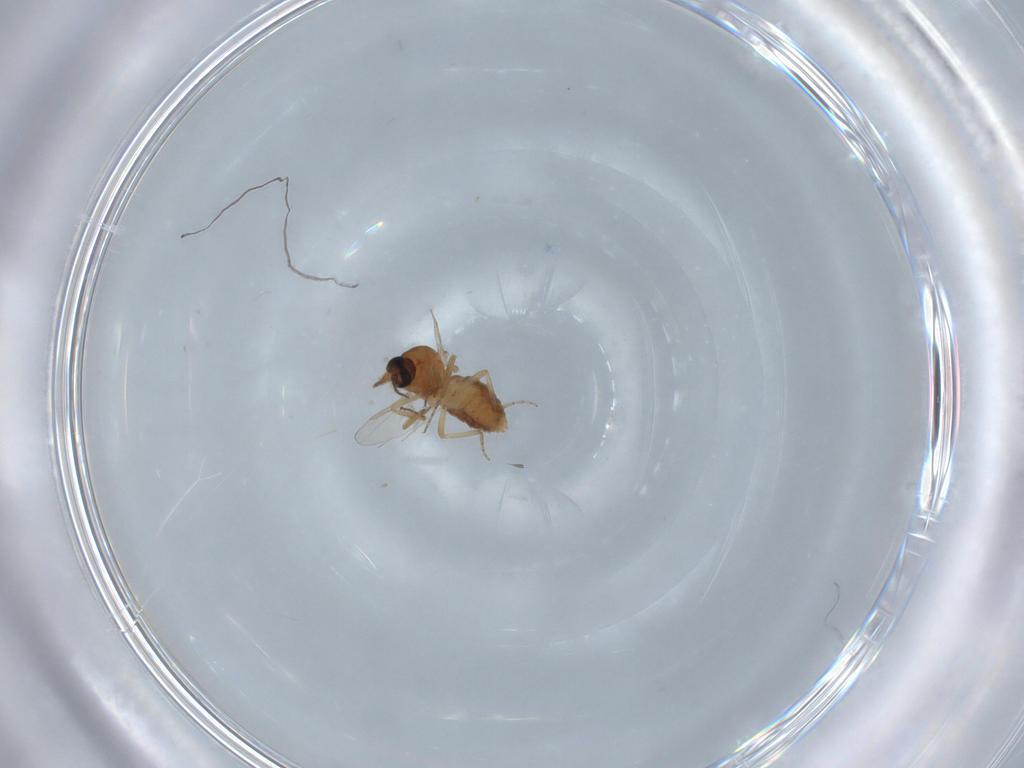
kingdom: Animalia
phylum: Arthropoda
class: Insecta
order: Diptera
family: Ceratopogonidae
